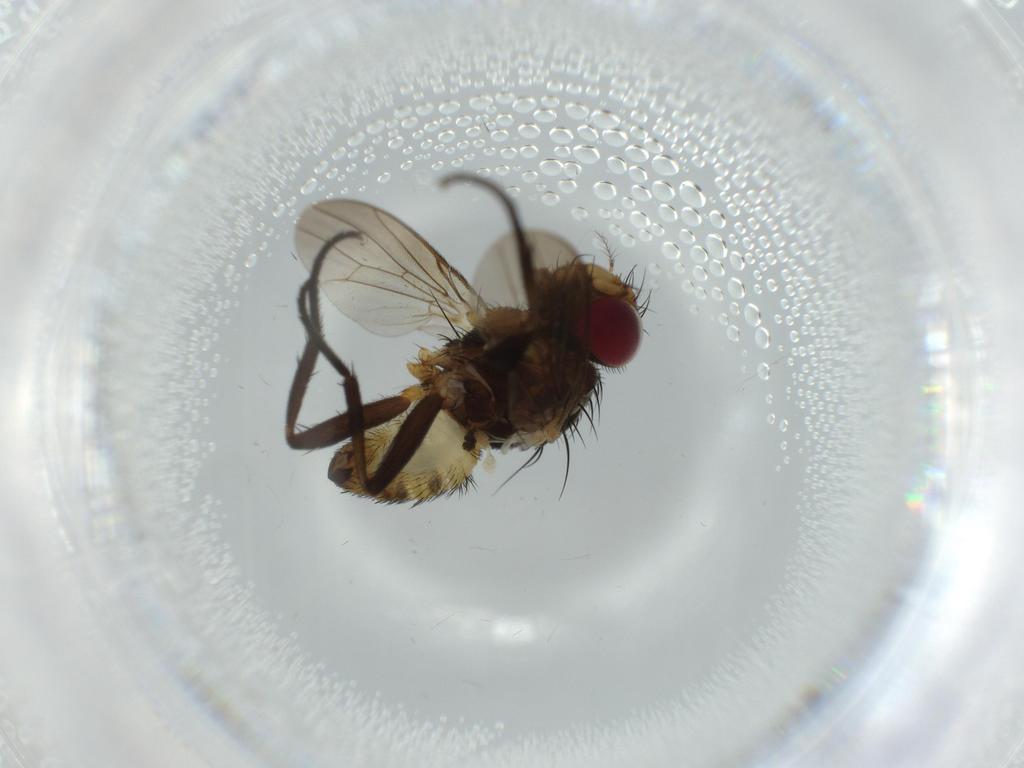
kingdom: Animalia
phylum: Arthropoda
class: Insecta
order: Diptera
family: Anthomyiidae
